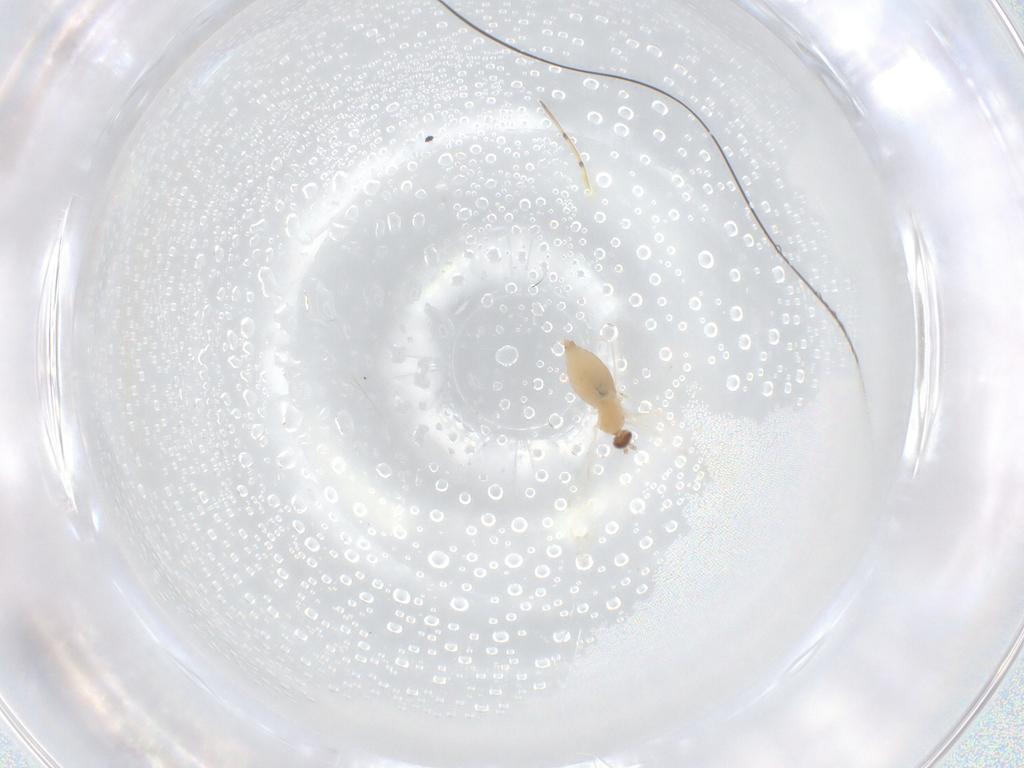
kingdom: Animalia
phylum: Arthropoda
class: Insecta
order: Diptera
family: Cecidomyiidae
